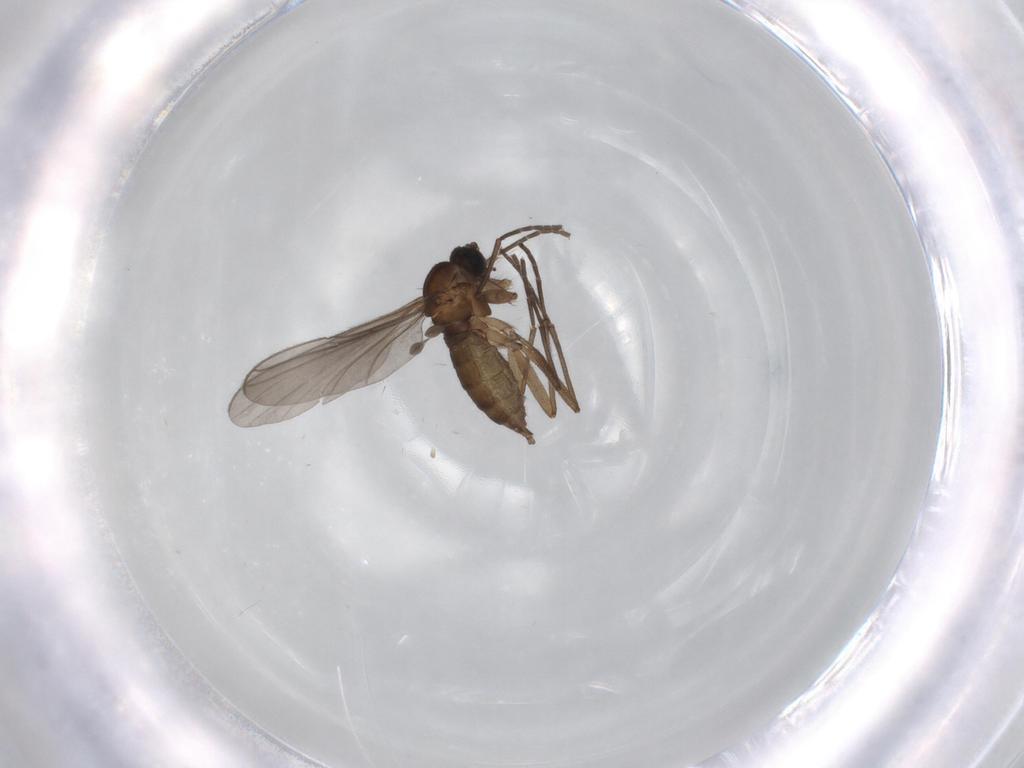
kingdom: Animalia
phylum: Arthropoda
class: Insecta
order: Diptera
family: Sciaridae
